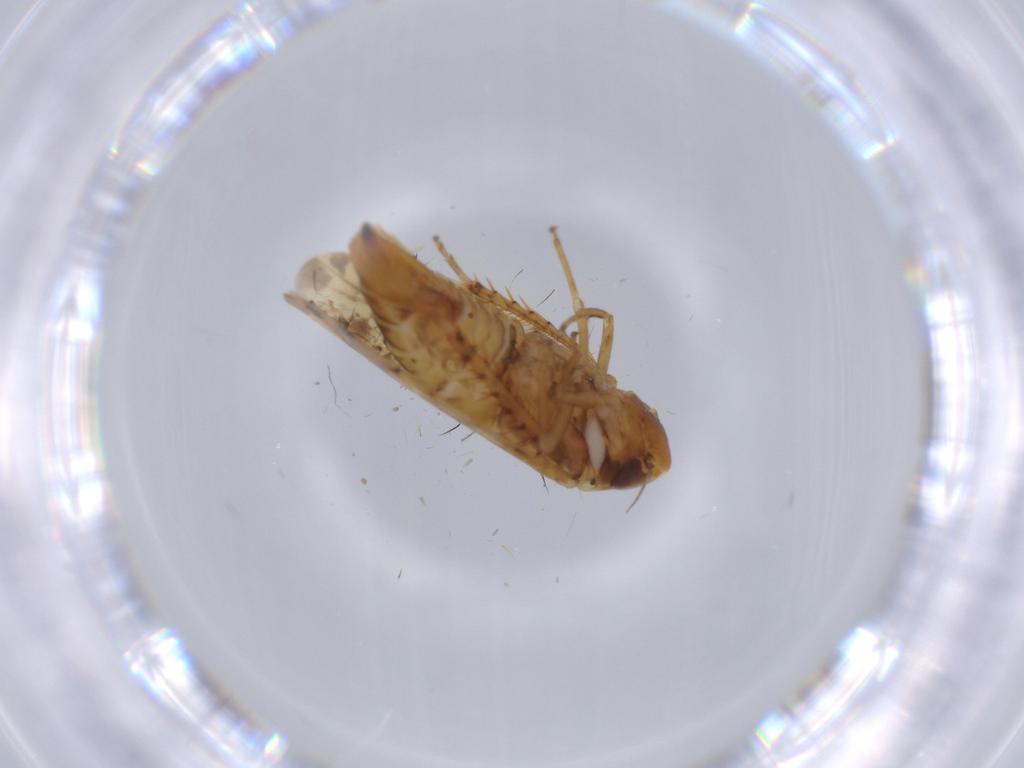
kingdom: Animalia
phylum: Arthropoda
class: Insecta
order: Hemiptera
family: Cicadellidae
